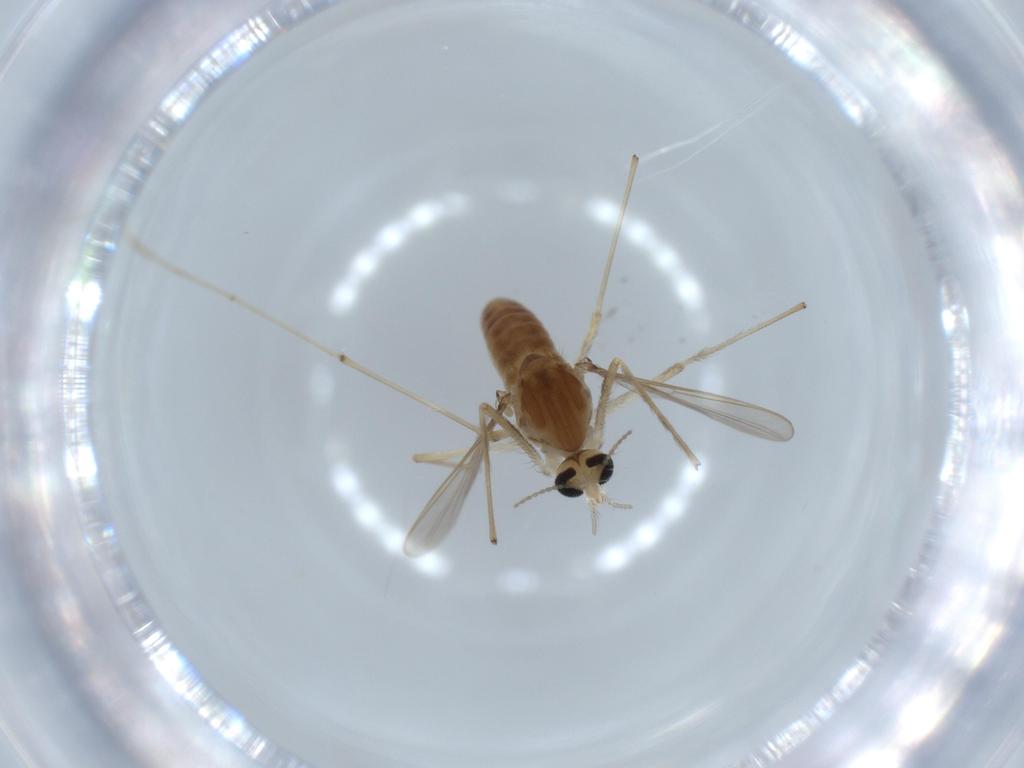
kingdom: Animalia
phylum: Arthropoda
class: Insecta
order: Diptera
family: Chironomidae
